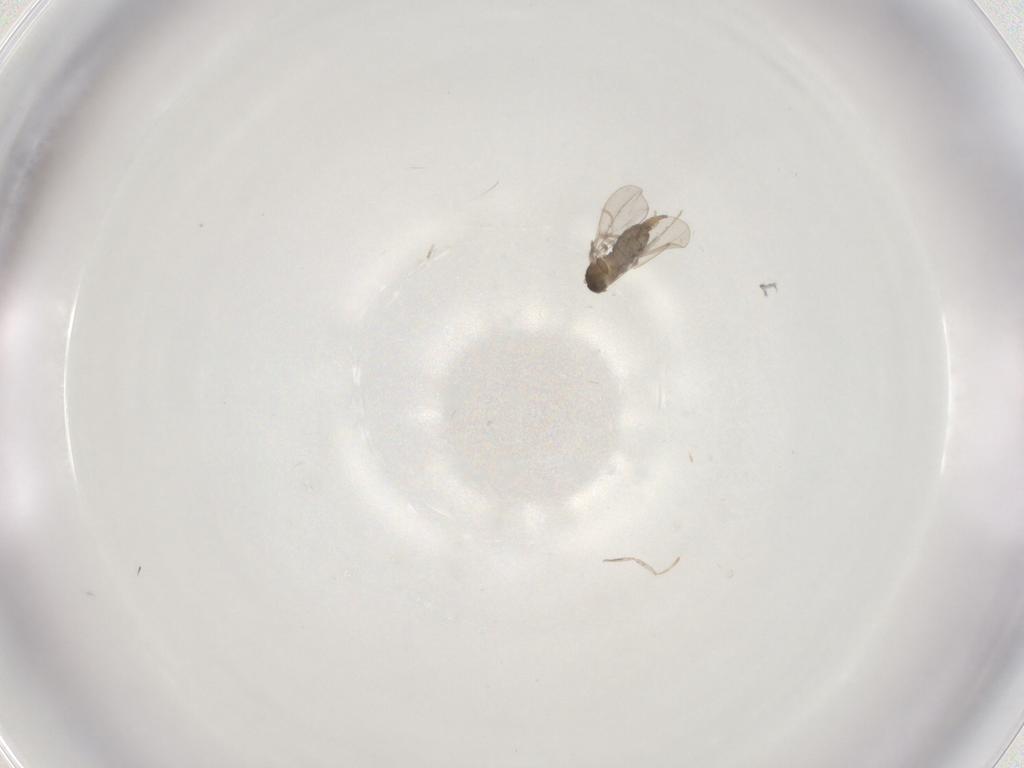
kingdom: Animalia
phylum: Arthropoda
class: Insecta
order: Diptera
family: Cecidomyiidae
